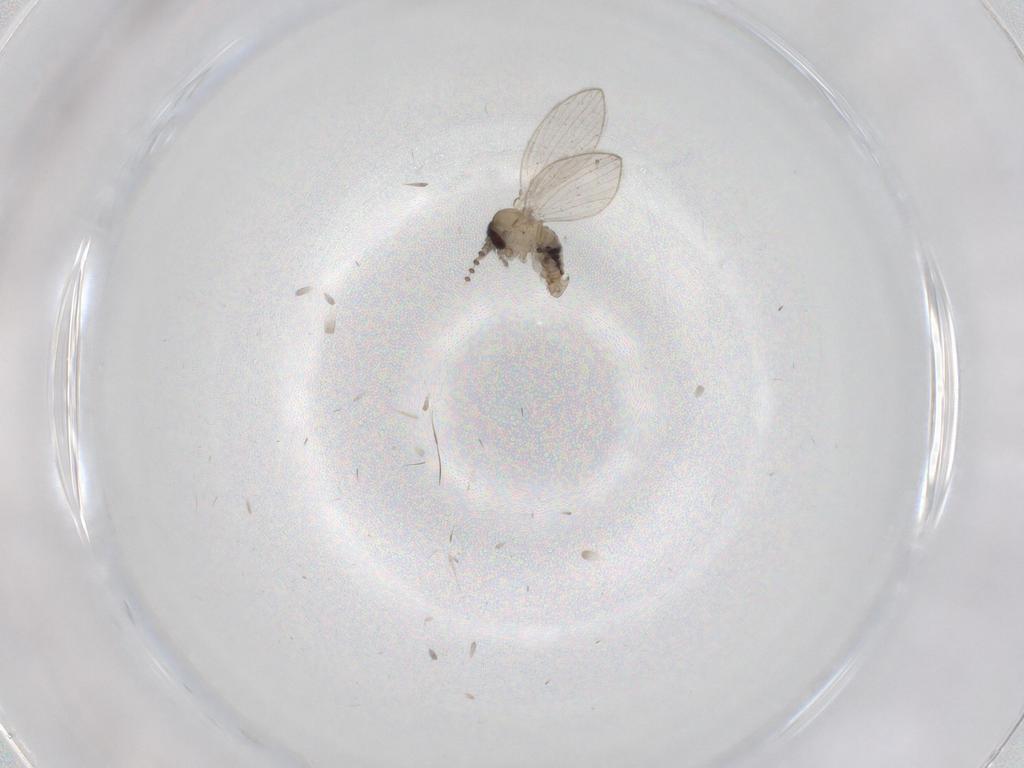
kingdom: Animalia
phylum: Arthropoda
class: Insecta
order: Diptera
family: Psychodidae
